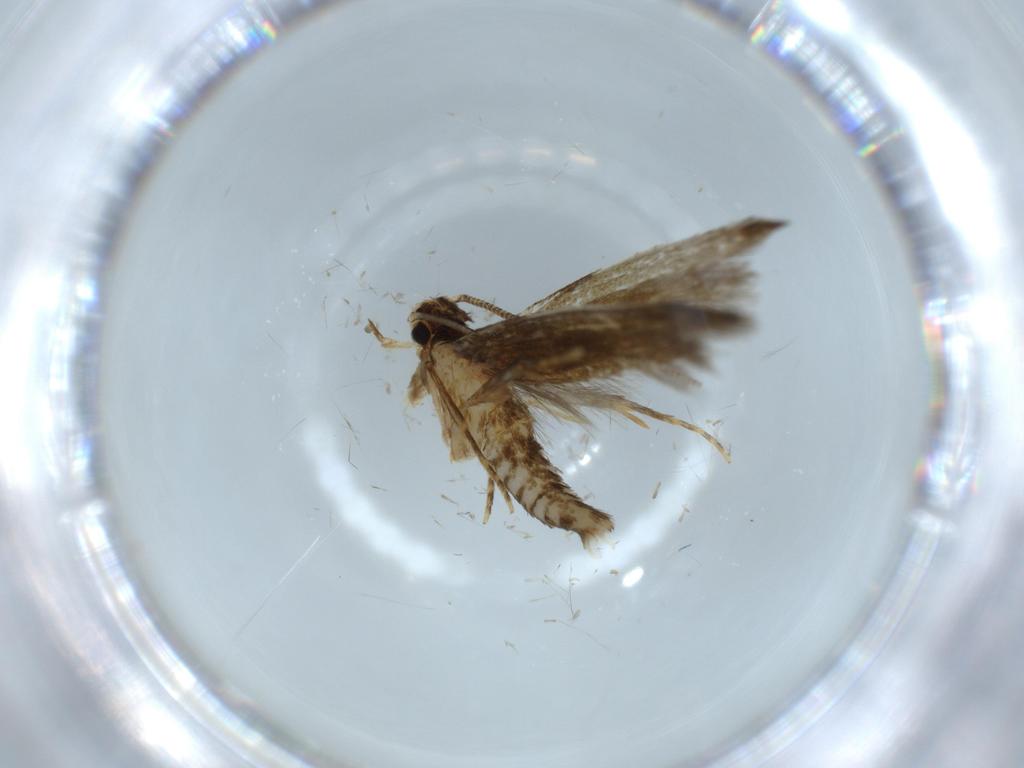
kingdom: Animalia
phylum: Arthropoda
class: Insecta
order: Lepidoptera
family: Tineidae
